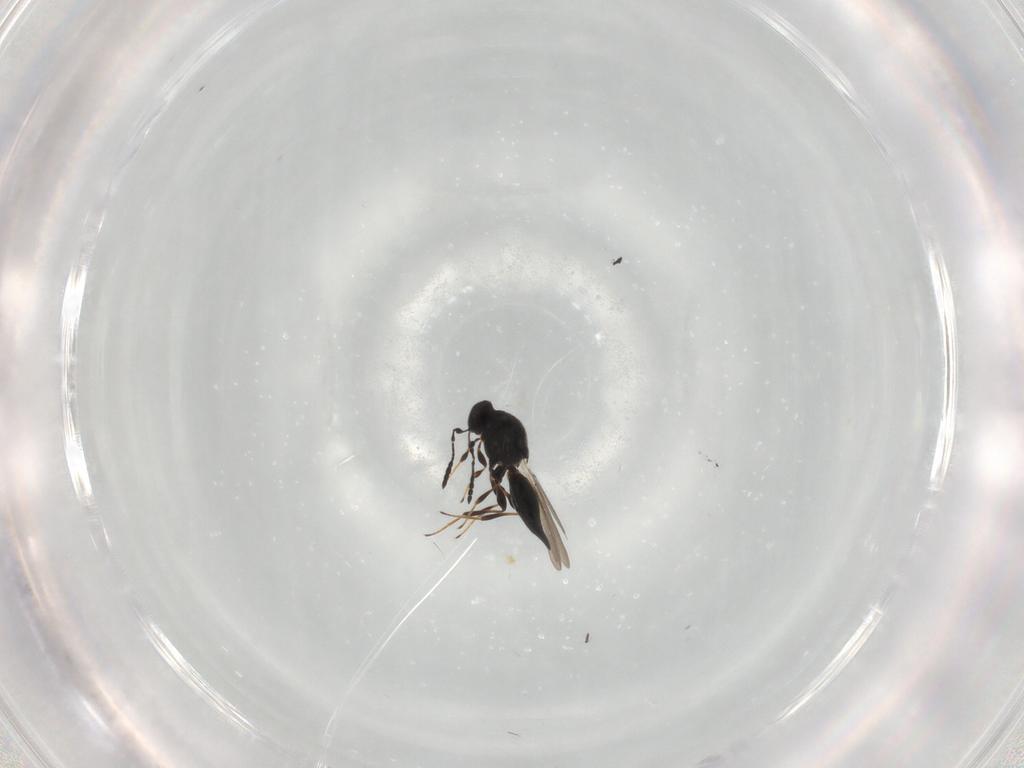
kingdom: Animalia
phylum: Arthropoda
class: Insecta
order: Hymenoptera
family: Platygastridae
